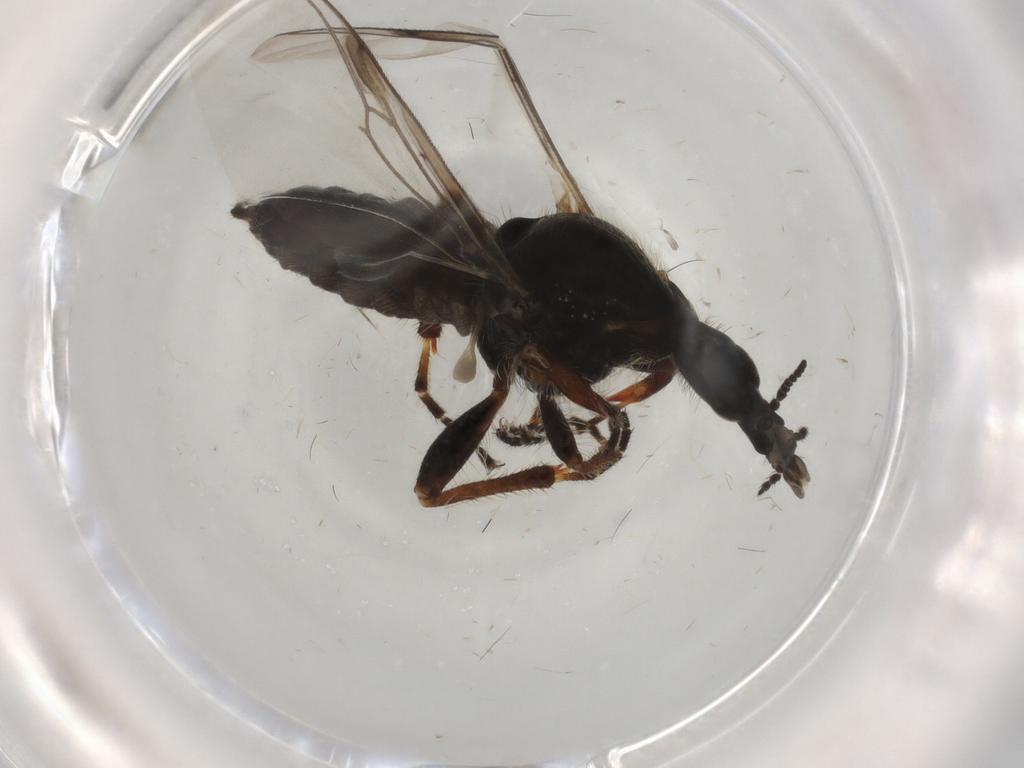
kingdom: Animalia
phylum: Arthropoda
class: Insecta
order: Diptera
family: Bibionidae
